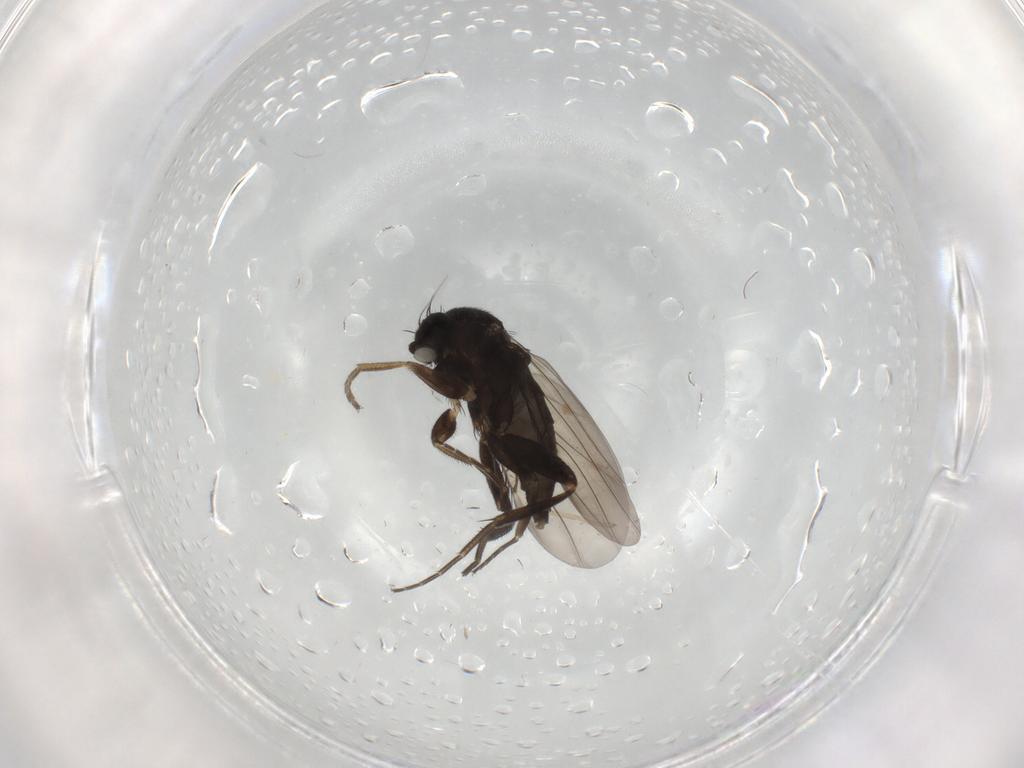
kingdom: Animalia
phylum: Arthropoda
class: Insecta
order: Diptera
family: Phoridae
